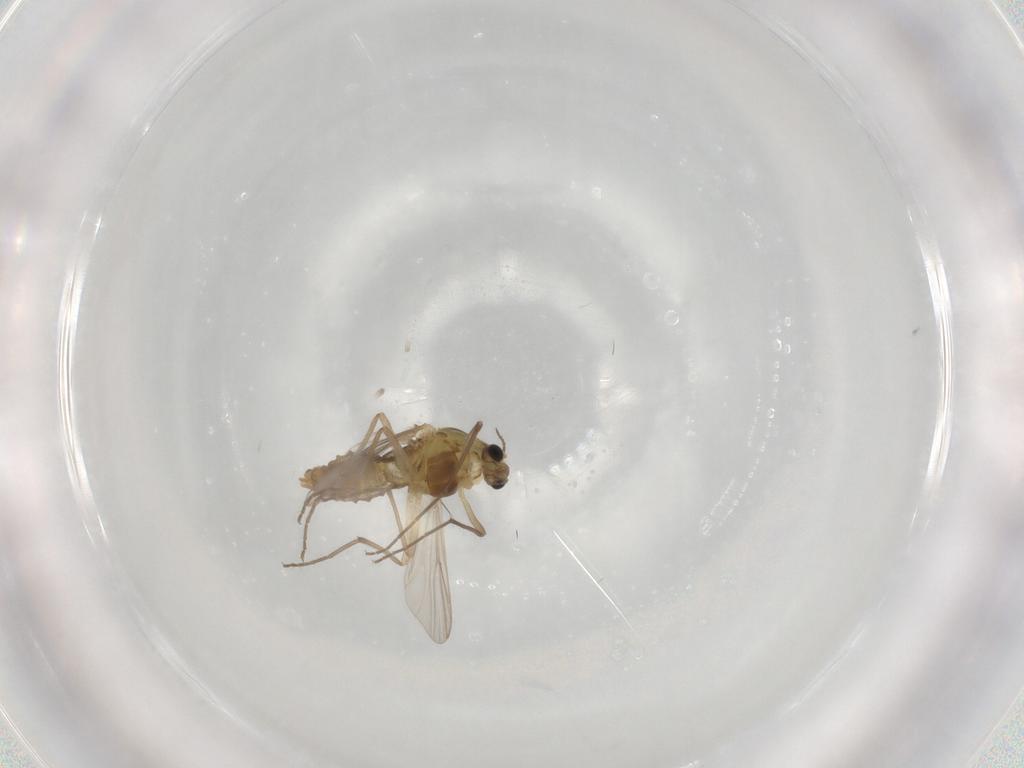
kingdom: Animalia
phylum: Arthropoda
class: Insecta
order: Diptera
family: Chironomidae
